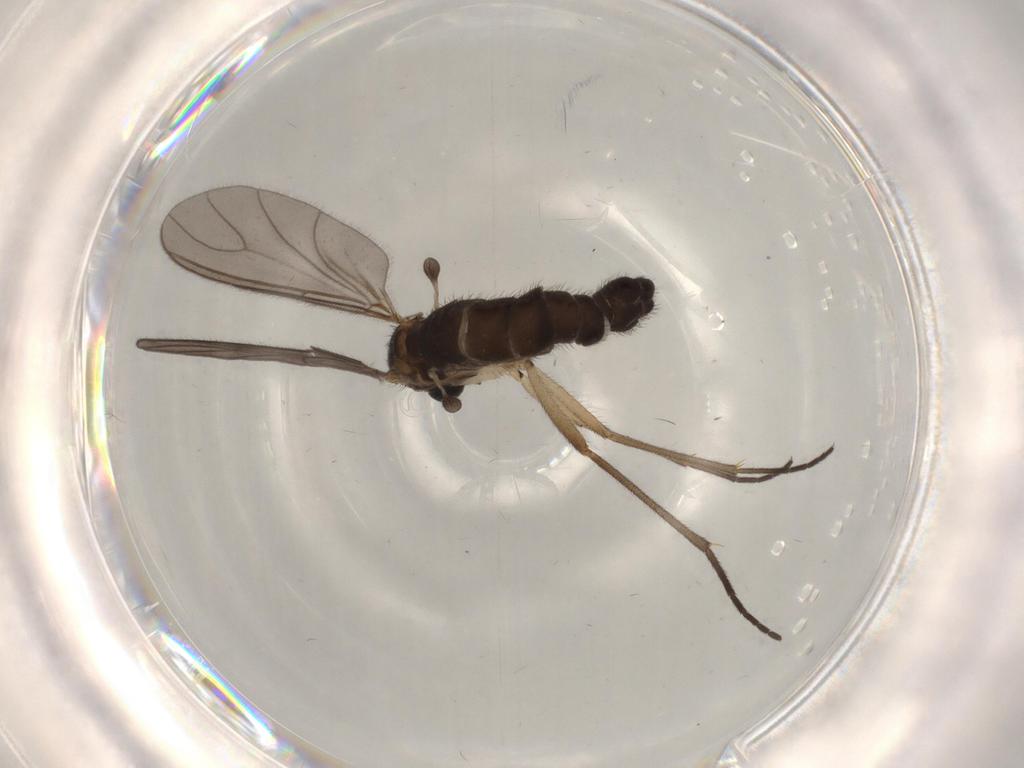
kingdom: Animalia
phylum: Arthropoda
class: Insecta
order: Diptera
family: Sciaridae
